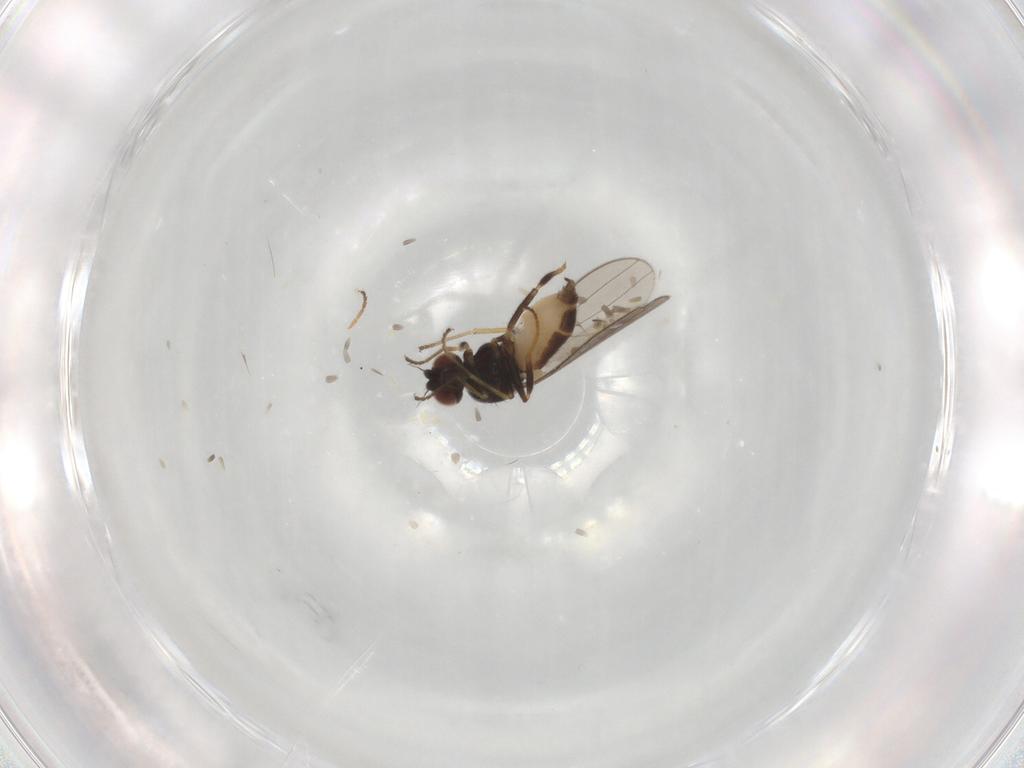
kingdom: Animalia
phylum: Arthropoda
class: Insecta
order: Diptera
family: Chloropidae
